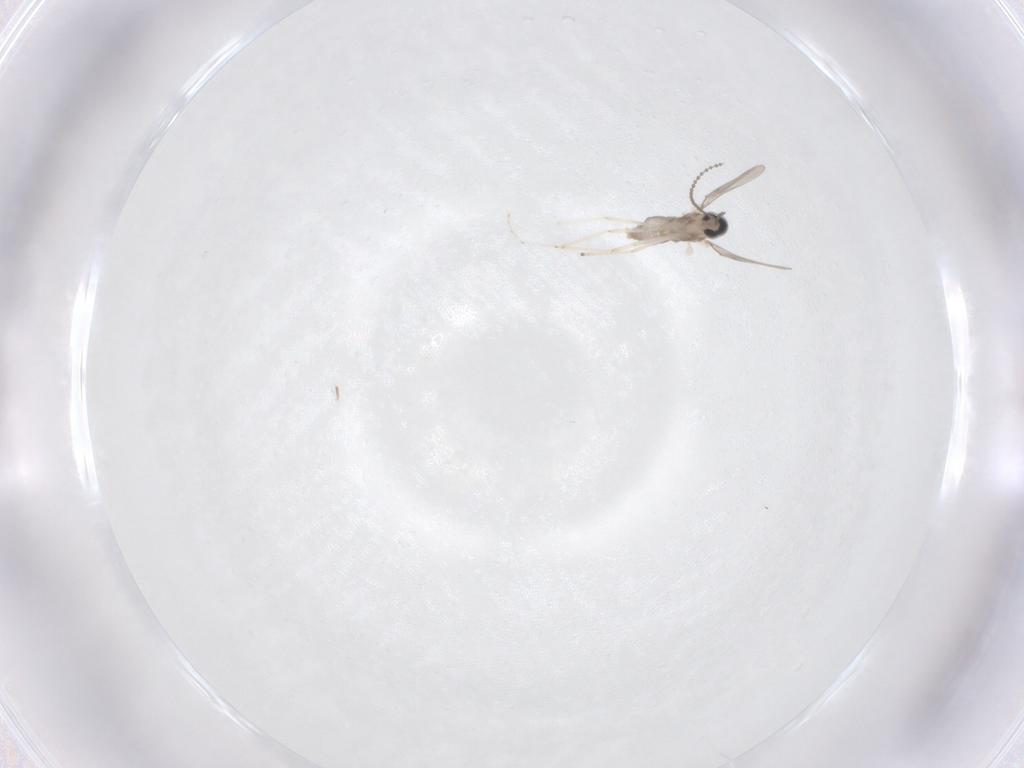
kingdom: Animalia
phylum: Arthropoda
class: Insecta
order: Diptera
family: Cecidomyiidae
